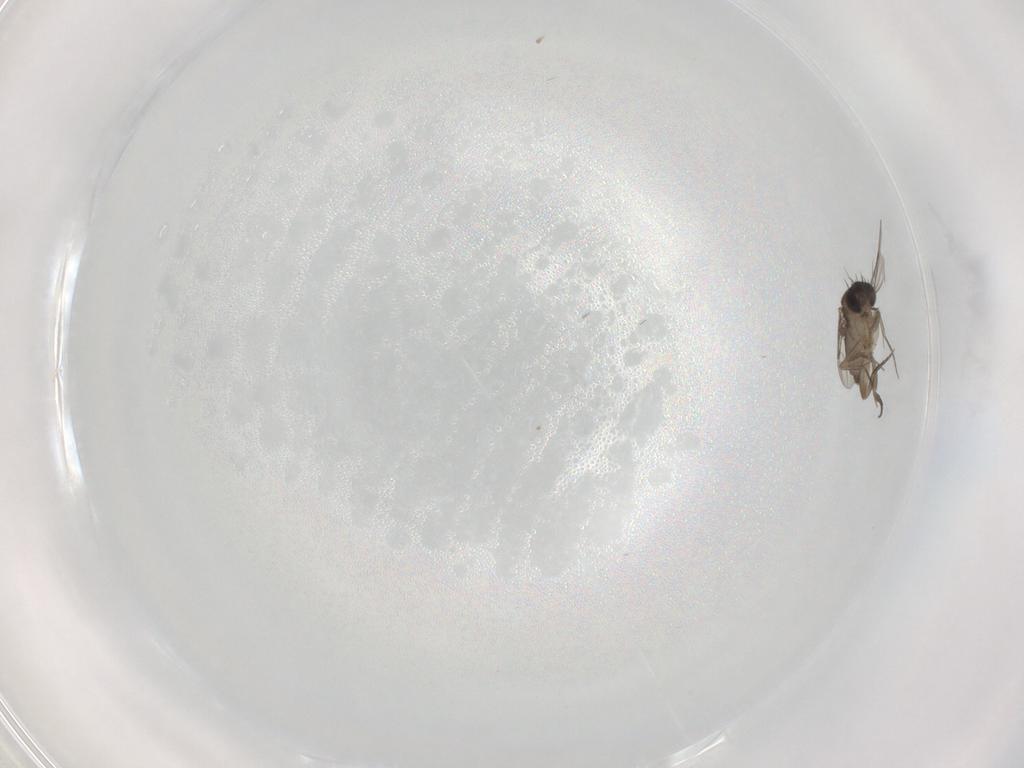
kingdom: Animalia
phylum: Arthropoda
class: Insecta
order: Diptera
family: Phoridae
